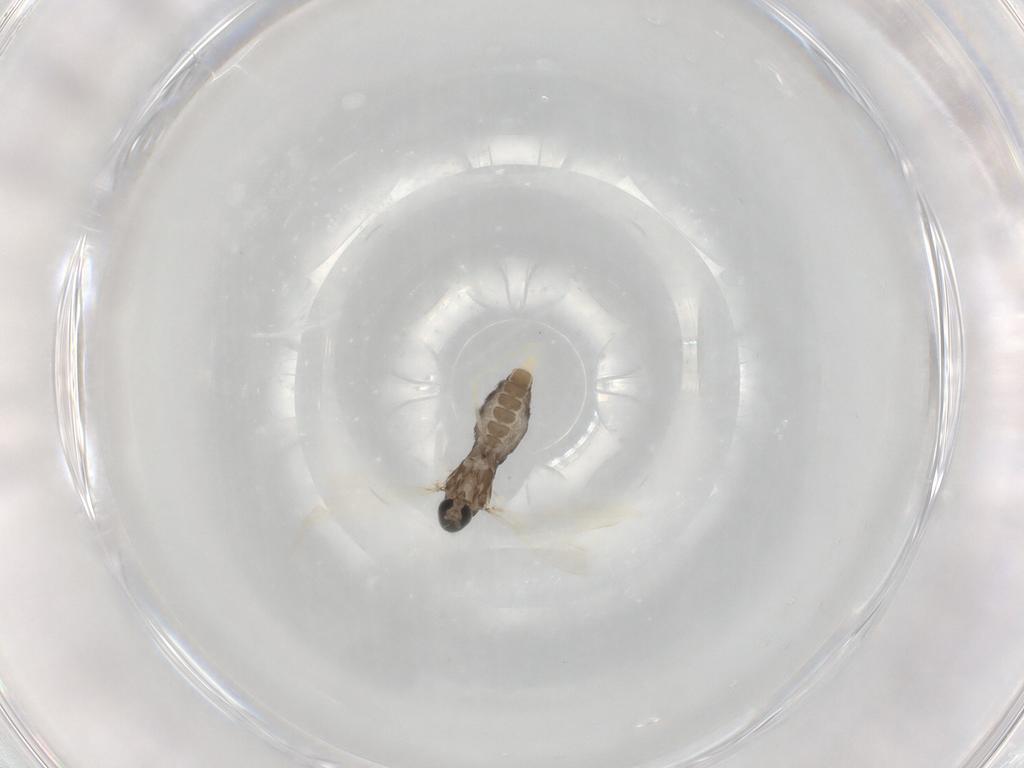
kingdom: Animalia
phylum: Arthropoda
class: Insecta
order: Diptera
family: Cecidomyiidae
